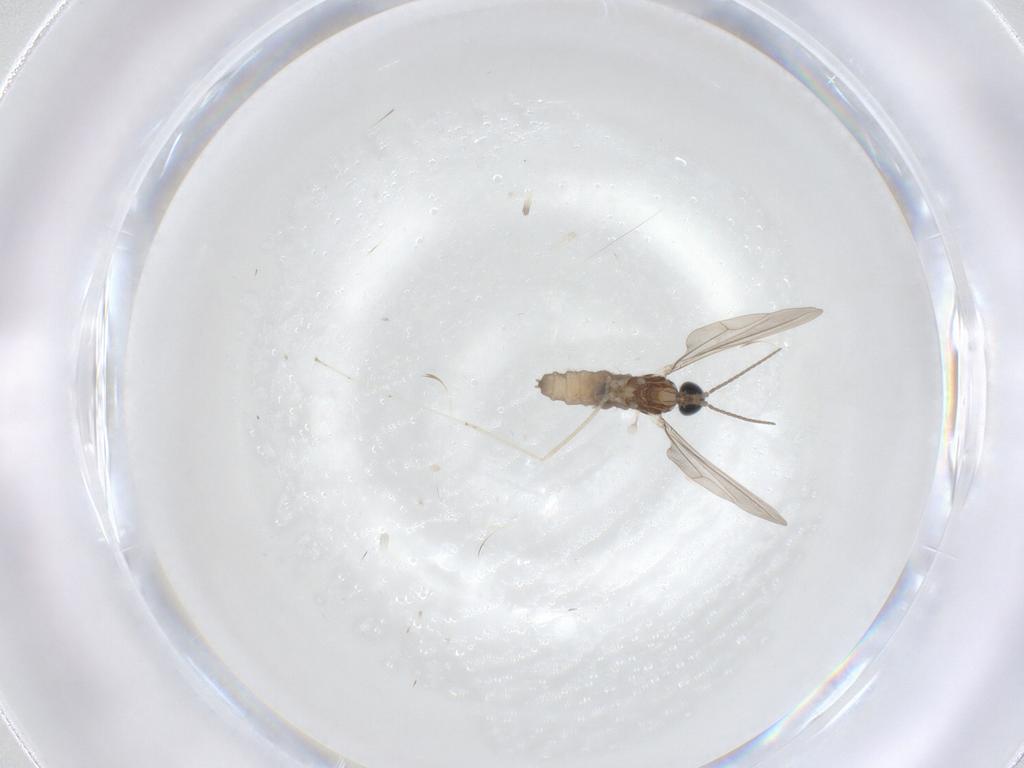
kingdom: Animalia
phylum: Arthropoda
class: Insecta
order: Diptera
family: Cecidomyiidae
